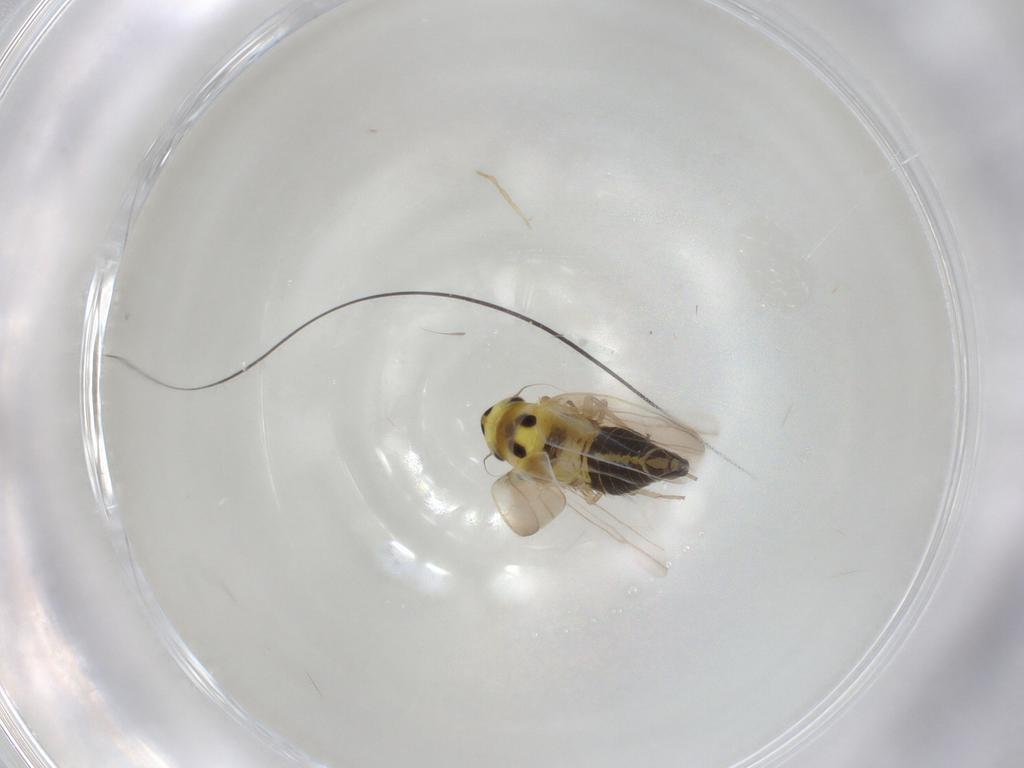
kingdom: Animalia
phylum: Arthropoda
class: Insecta
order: Hemiptera
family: Cicadellidae
